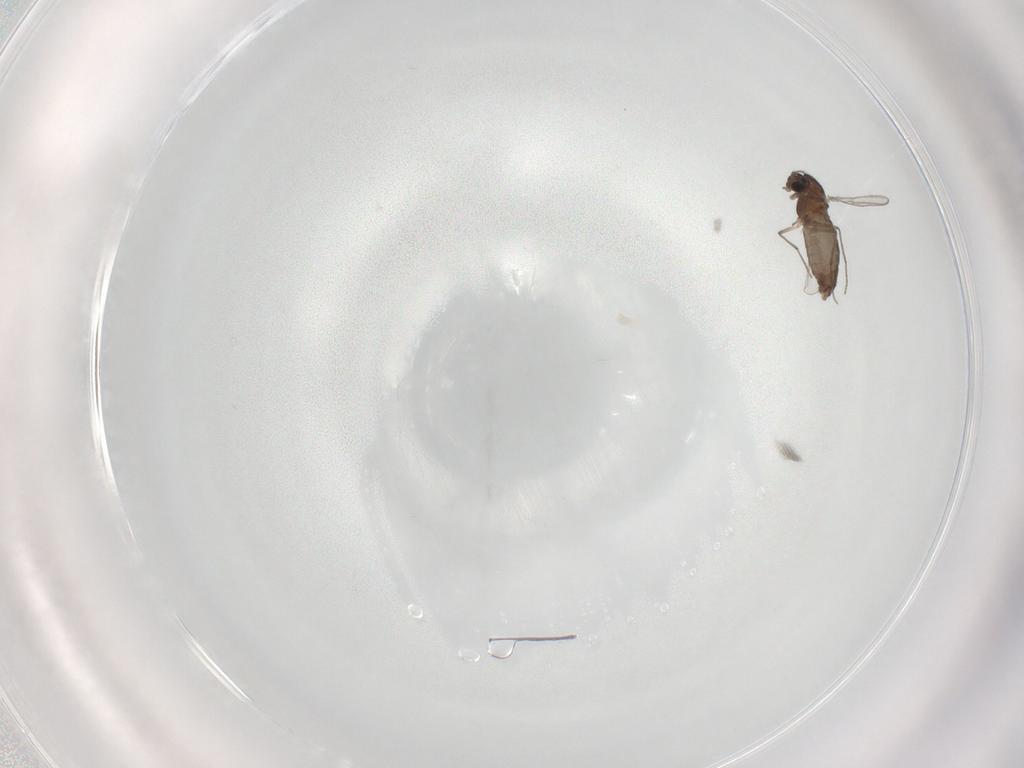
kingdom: Animalia
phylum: Arthropoda
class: Insecta
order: Diptera
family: Chironomidae
